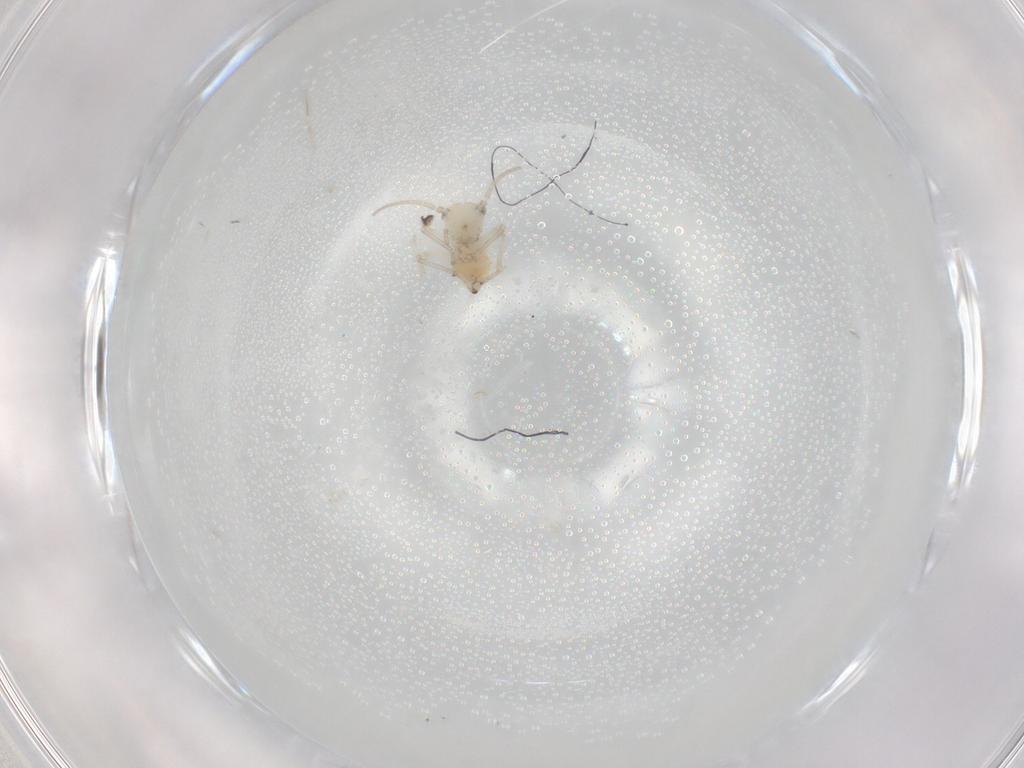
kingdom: Animalia
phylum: Arthropoda
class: Insecta
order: Psocodea
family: Caeciliusidae
